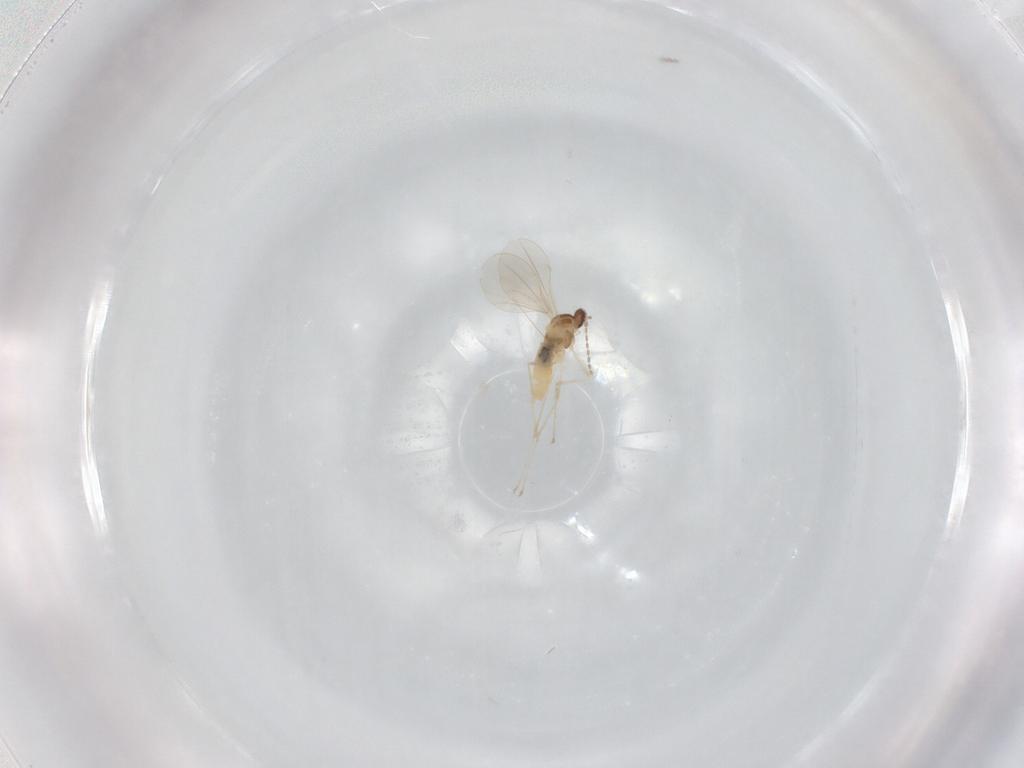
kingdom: Animalia
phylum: Arthropoda
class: Insecta
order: Diptera
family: Cecidomyiidae
